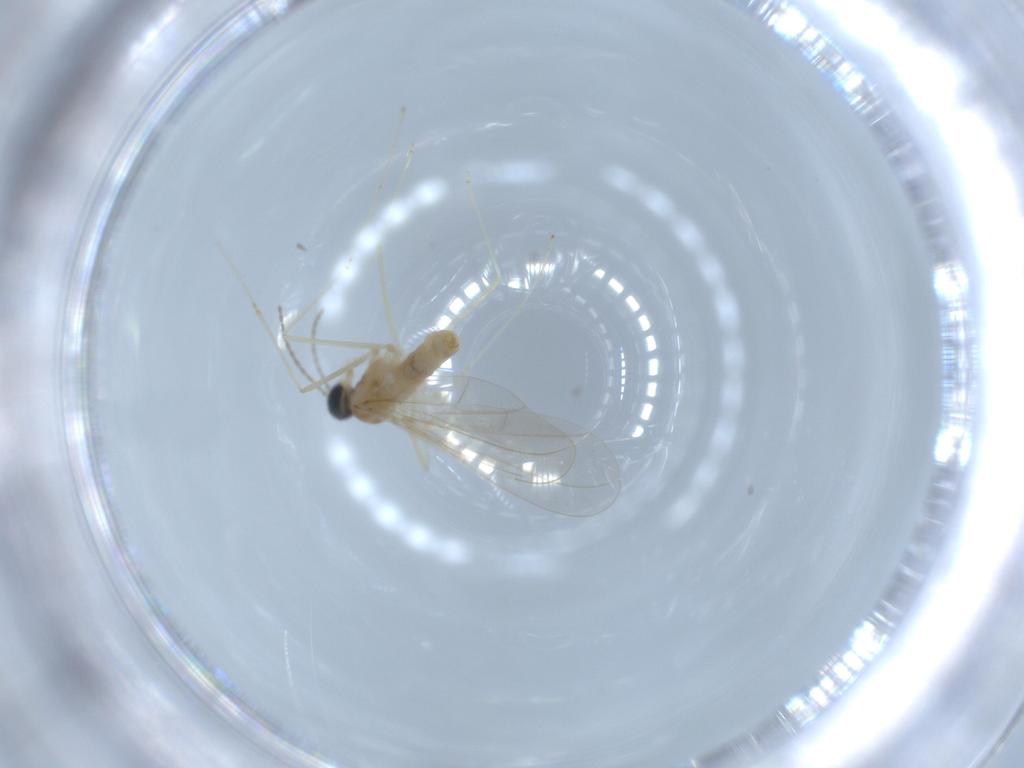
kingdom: Animalia
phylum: Arthropoda
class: Insecta
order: Diptera
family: Cecidomyiidae
